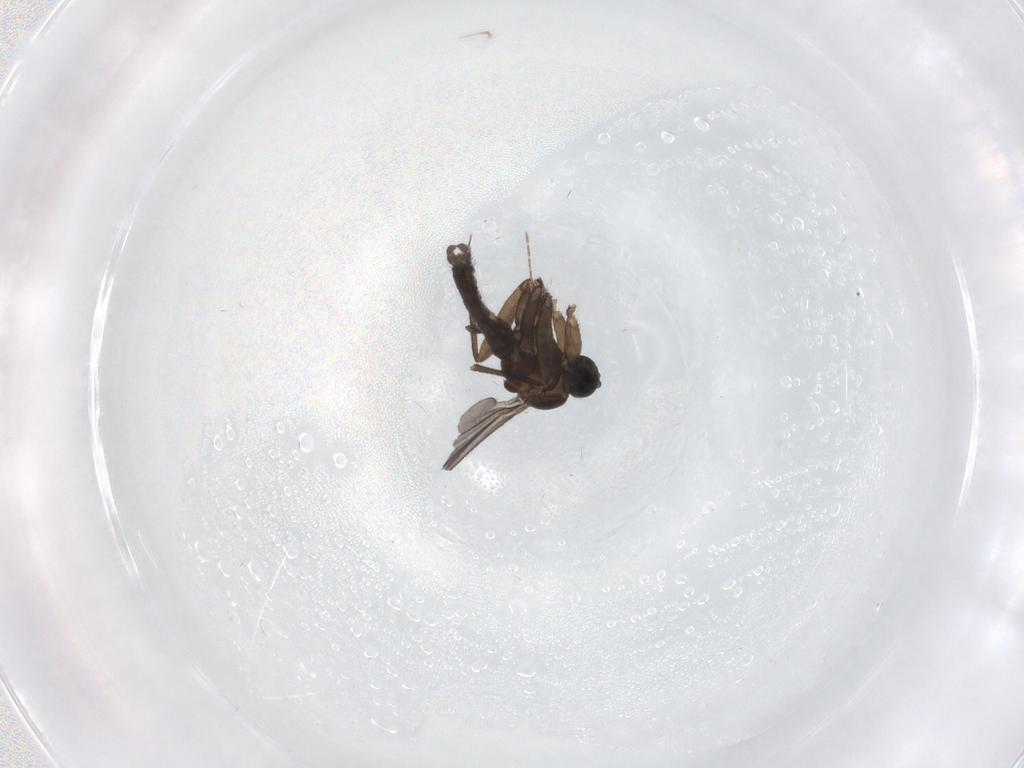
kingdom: Animalia
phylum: Arthropoda
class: Insecta
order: Diptera
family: Sciaridae
